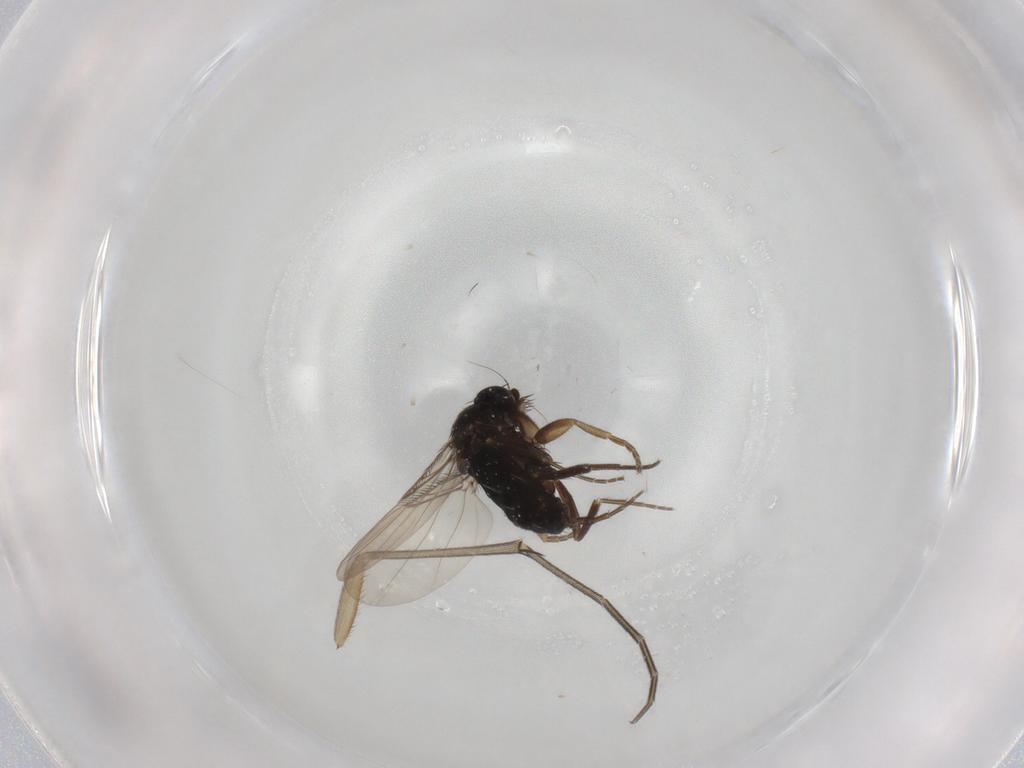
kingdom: Animalia
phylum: Arthropoda
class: Insecta
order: Diptera
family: Phoridae
